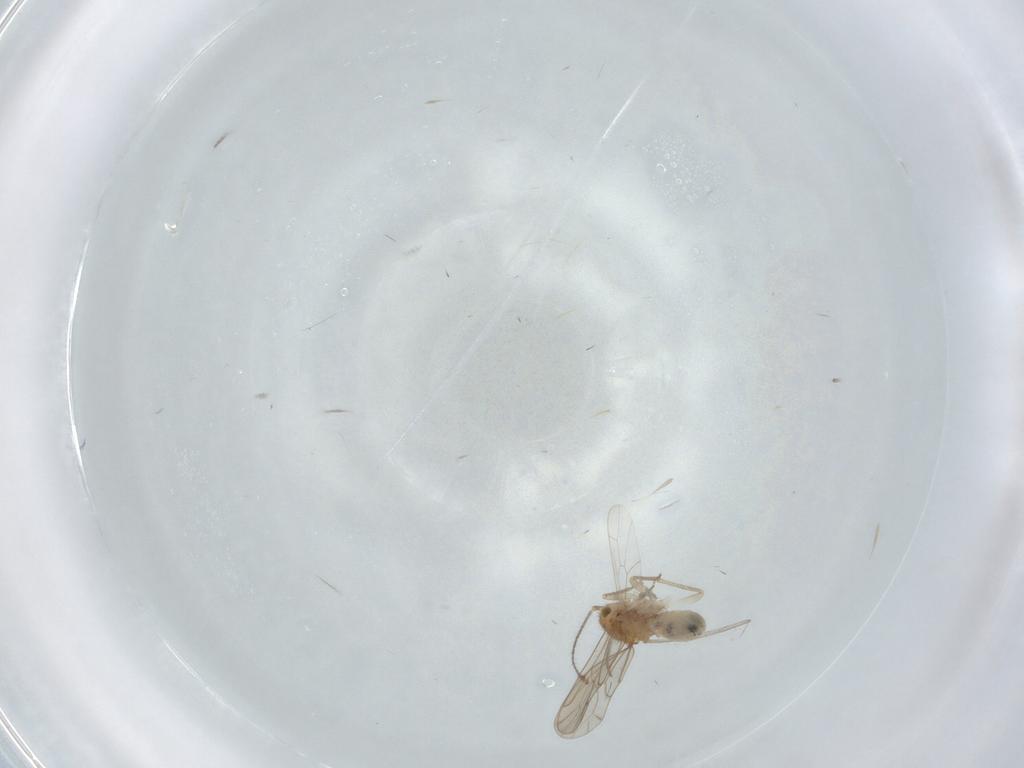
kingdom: Animalia
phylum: Arthropoda
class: Insecta
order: Psocodea
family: Ectopsocidae
